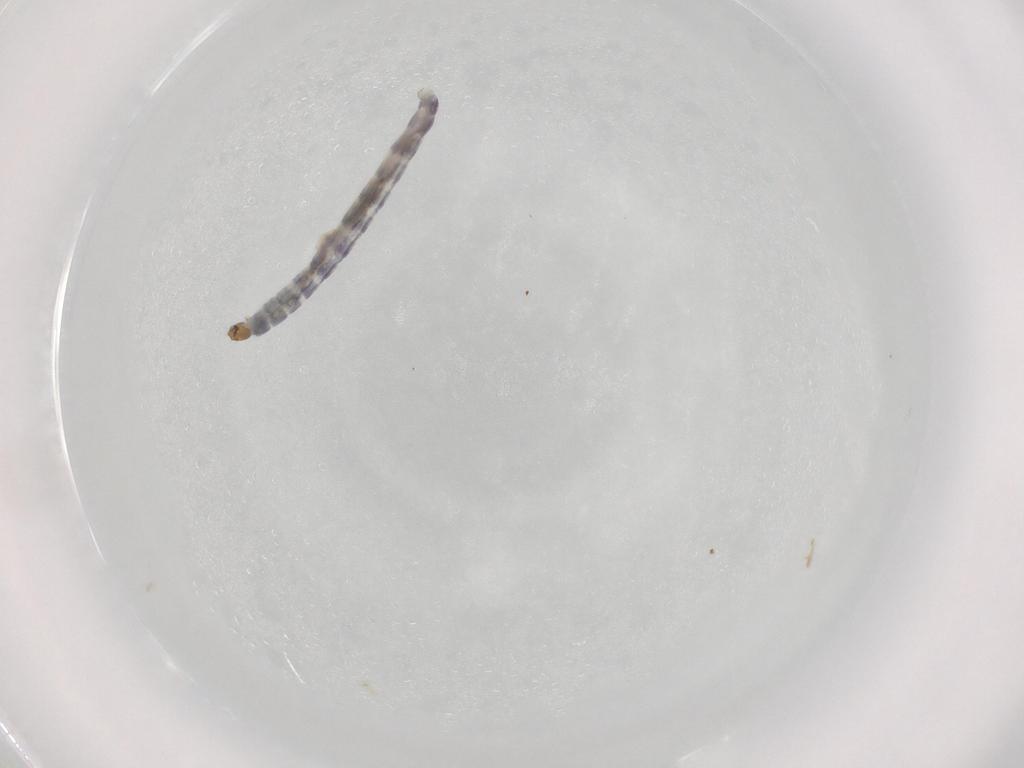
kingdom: Animalia
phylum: Arthropoda
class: Insecta
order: Diptera
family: Chironomidae
